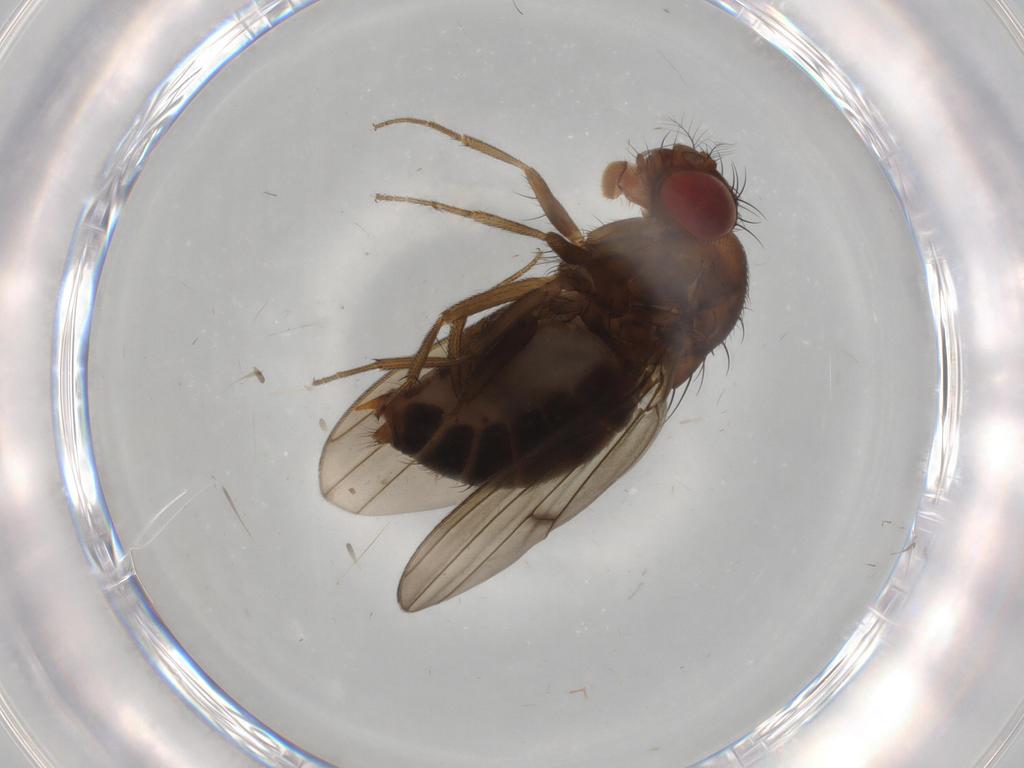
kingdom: Animalia
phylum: Arthropoda
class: Insecta
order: Diptera
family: Drosophilidae
